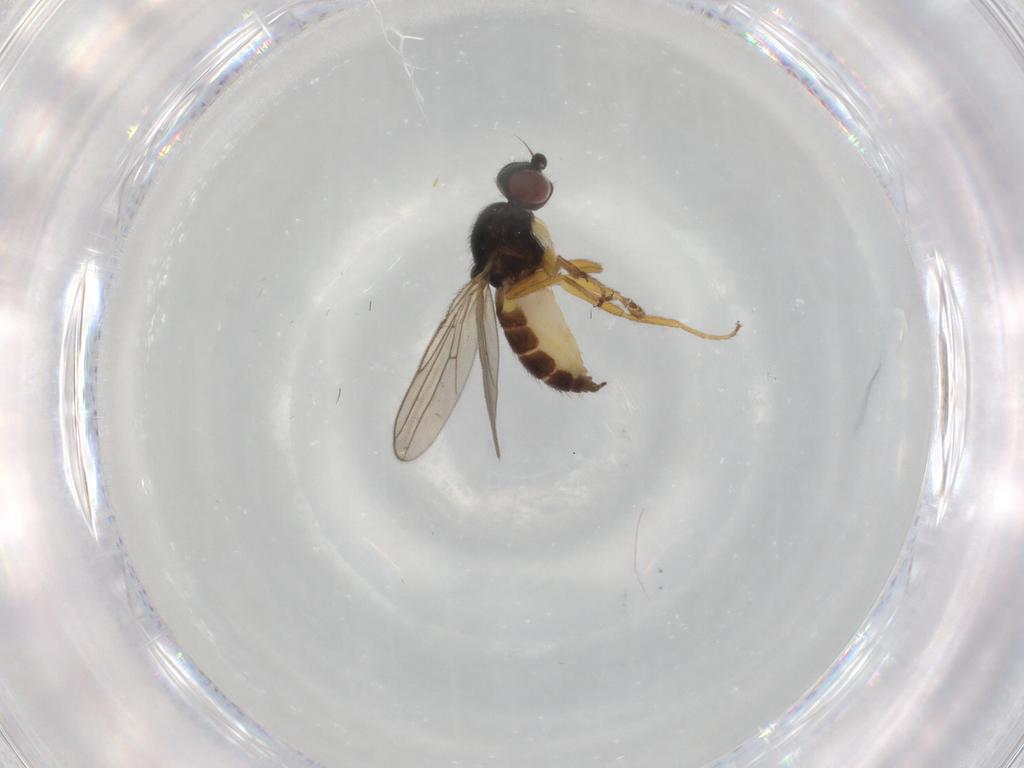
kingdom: Animalia
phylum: Arthropoda
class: Insecta
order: Diptera
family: Chloropidae
